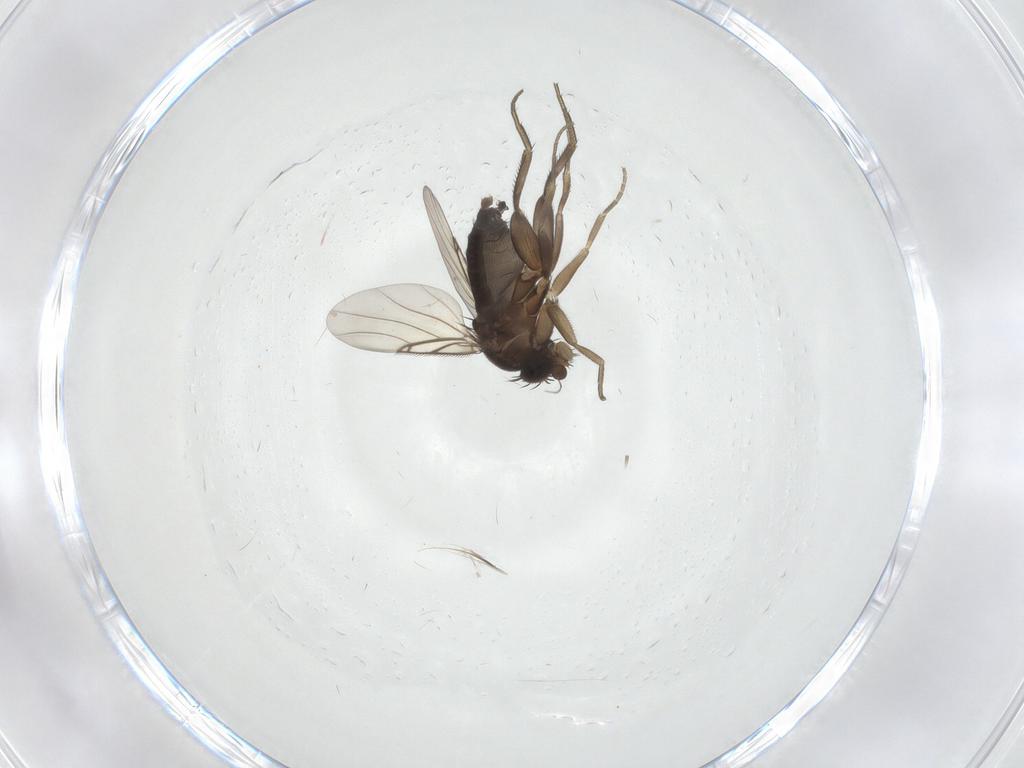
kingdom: Animalia
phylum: Arthropoda
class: Insecta
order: Diptera
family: Phoridae
